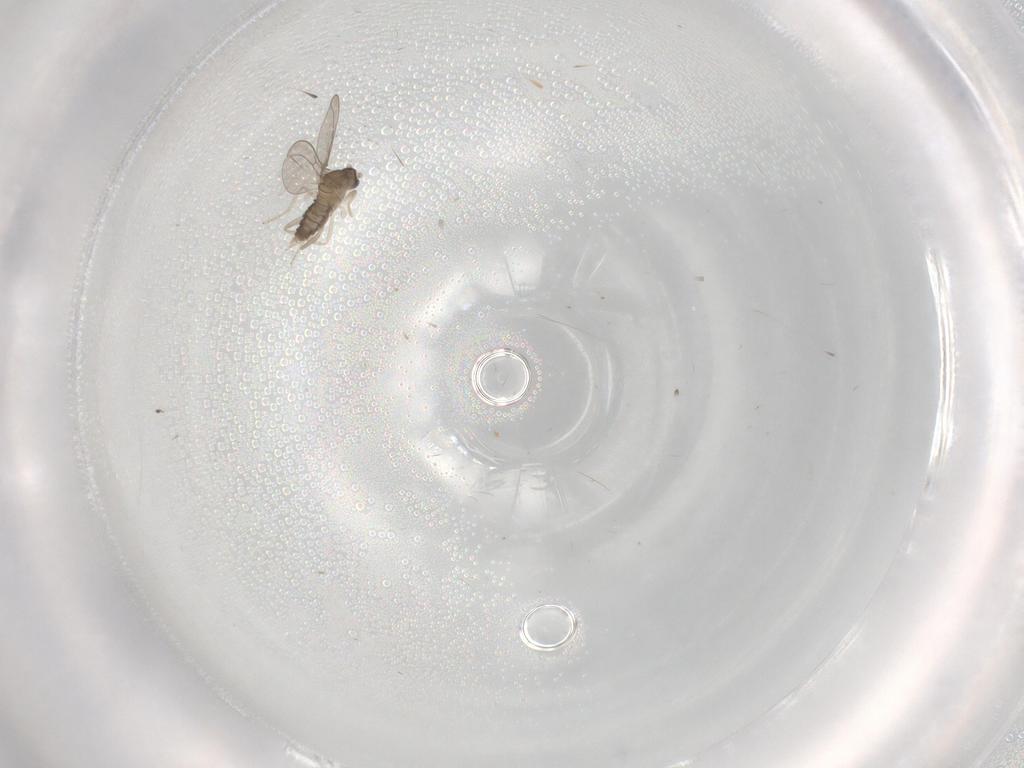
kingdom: Animalia
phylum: Arthropoda
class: Insecta
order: Diptera
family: Cecidomyiidae
